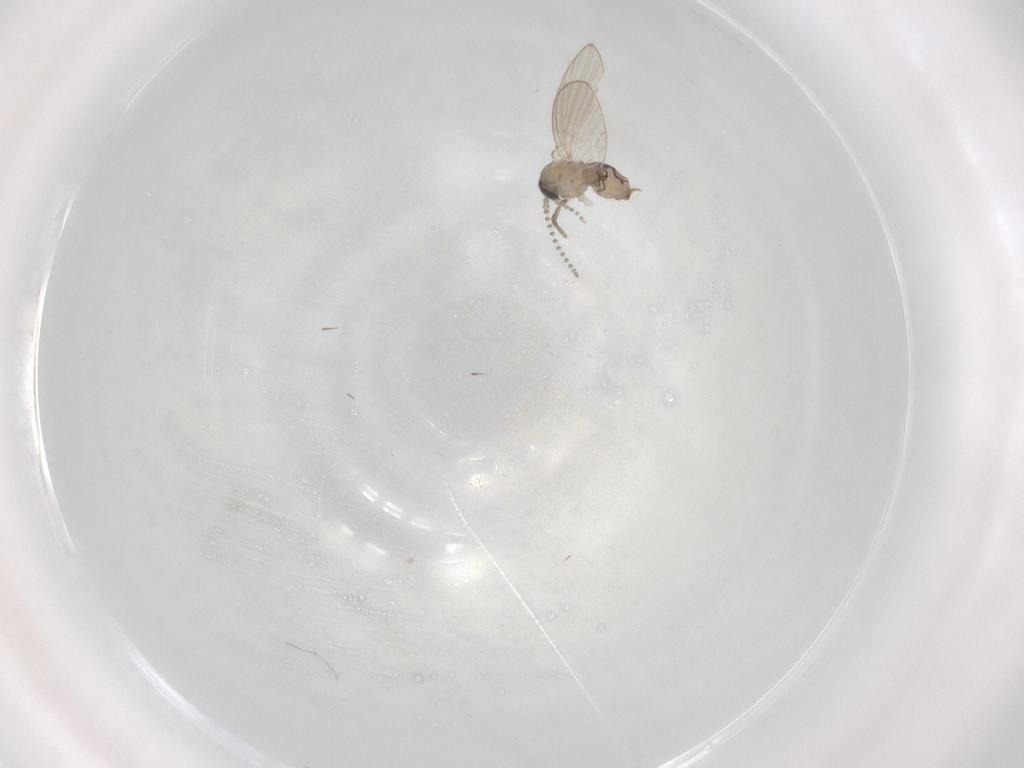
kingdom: Animalia
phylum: Arthropoda
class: Insecta
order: Diptera
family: Psychodidae
